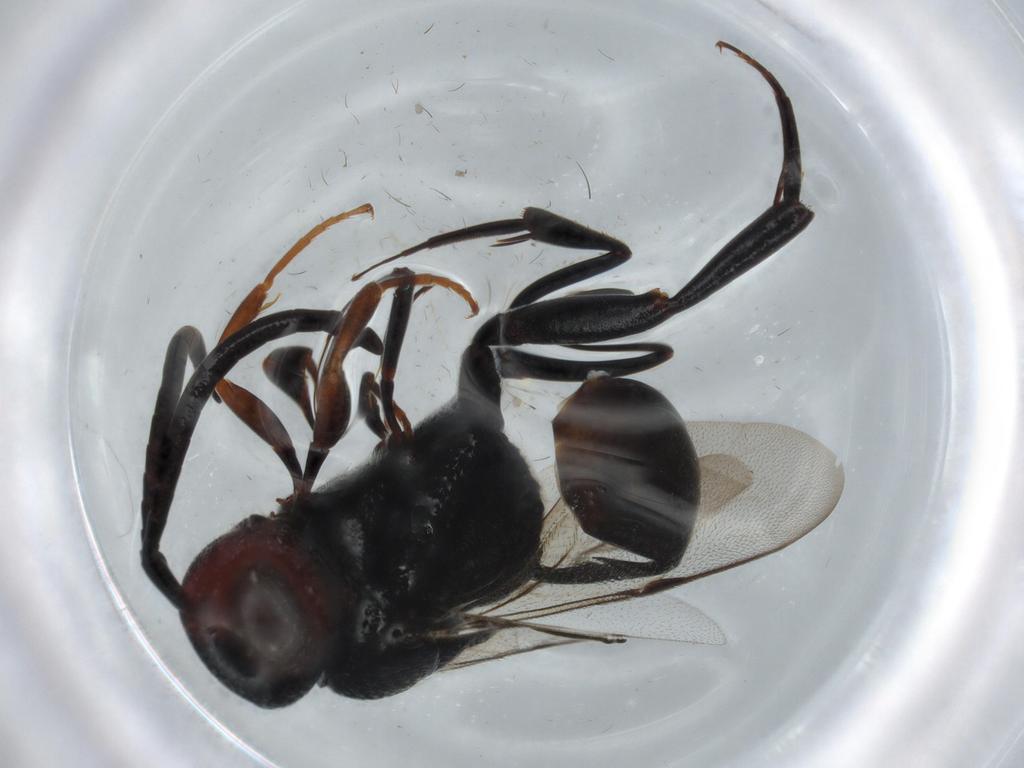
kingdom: Animalia
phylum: Arthropoda
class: Insecta
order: Hymenoptera
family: Evaniidae
